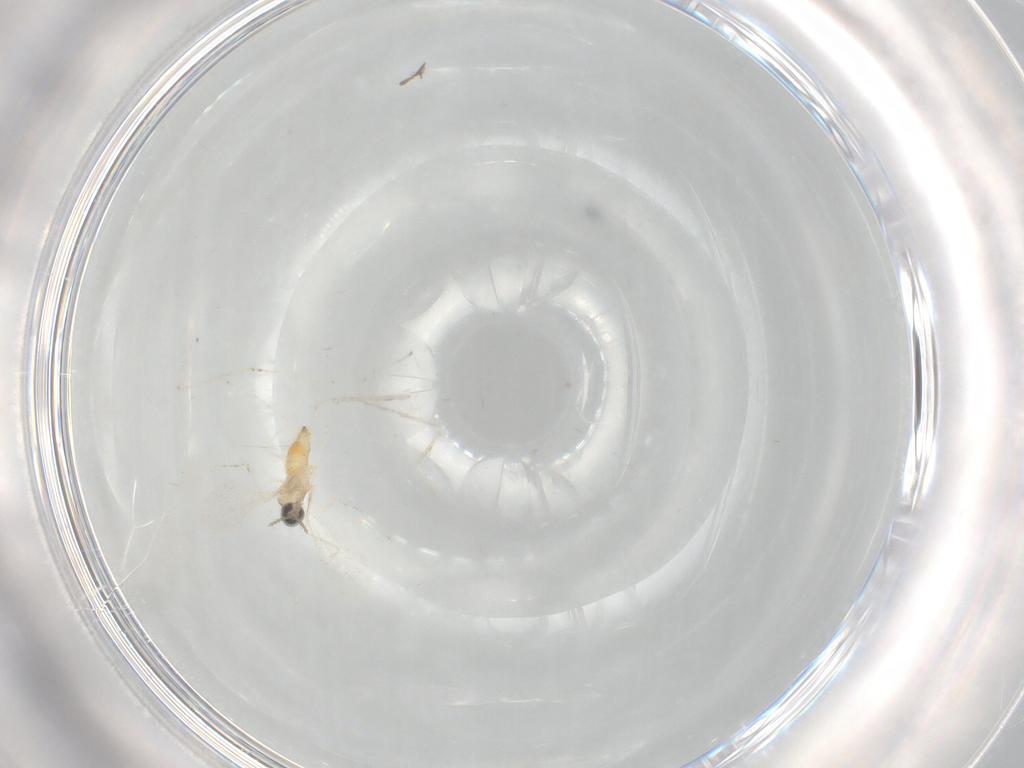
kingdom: Animalia
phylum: Arthropoda
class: Insecta
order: Diptera
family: Cecidomyiidae
